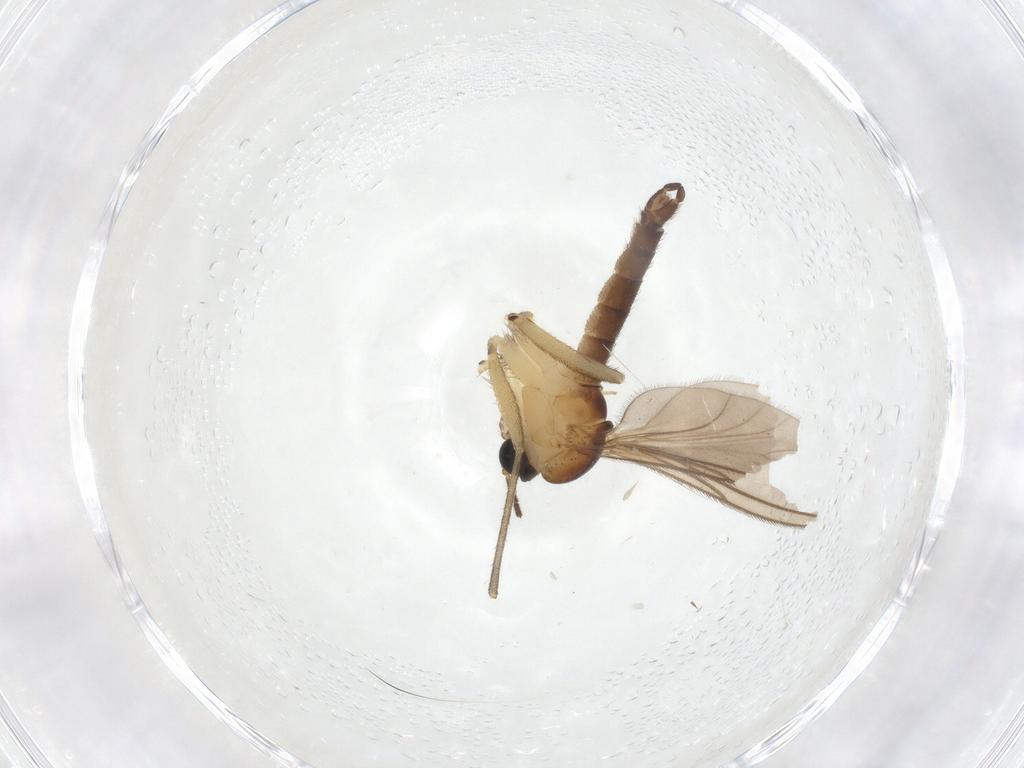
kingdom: Animalia
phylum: Arthropoda
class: Insecta
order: Diptera
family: Sciaridae
